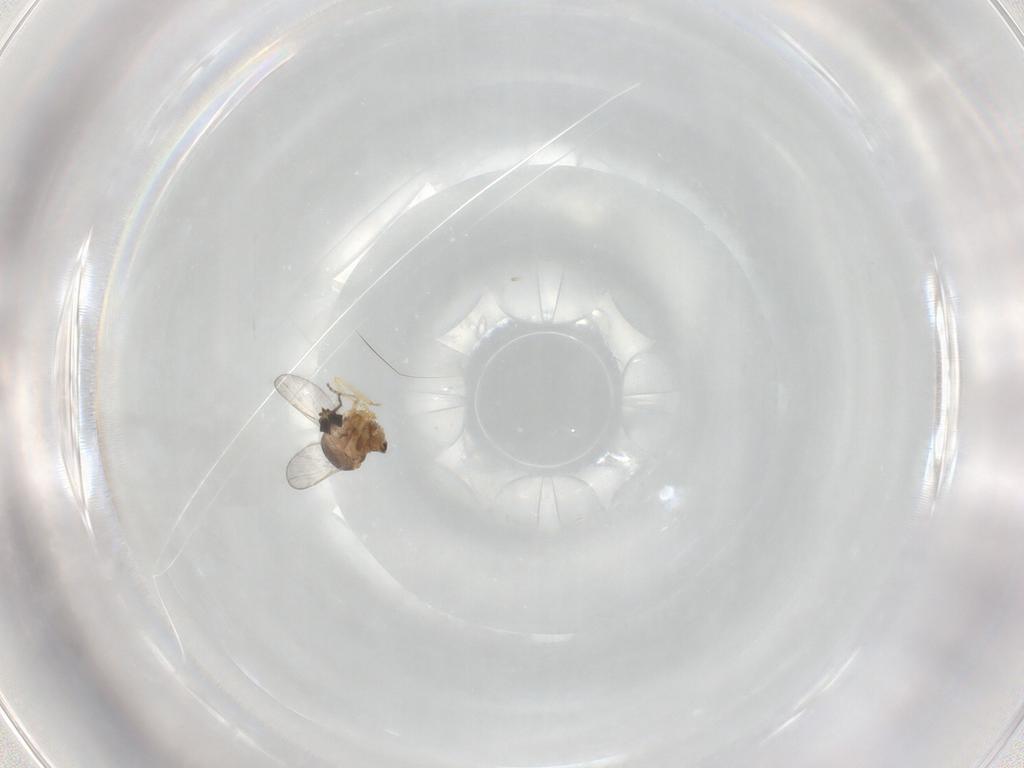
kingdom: Animalia
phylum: Arthropoda
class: Insecta
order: Diptera
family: Ceratopogonidae
